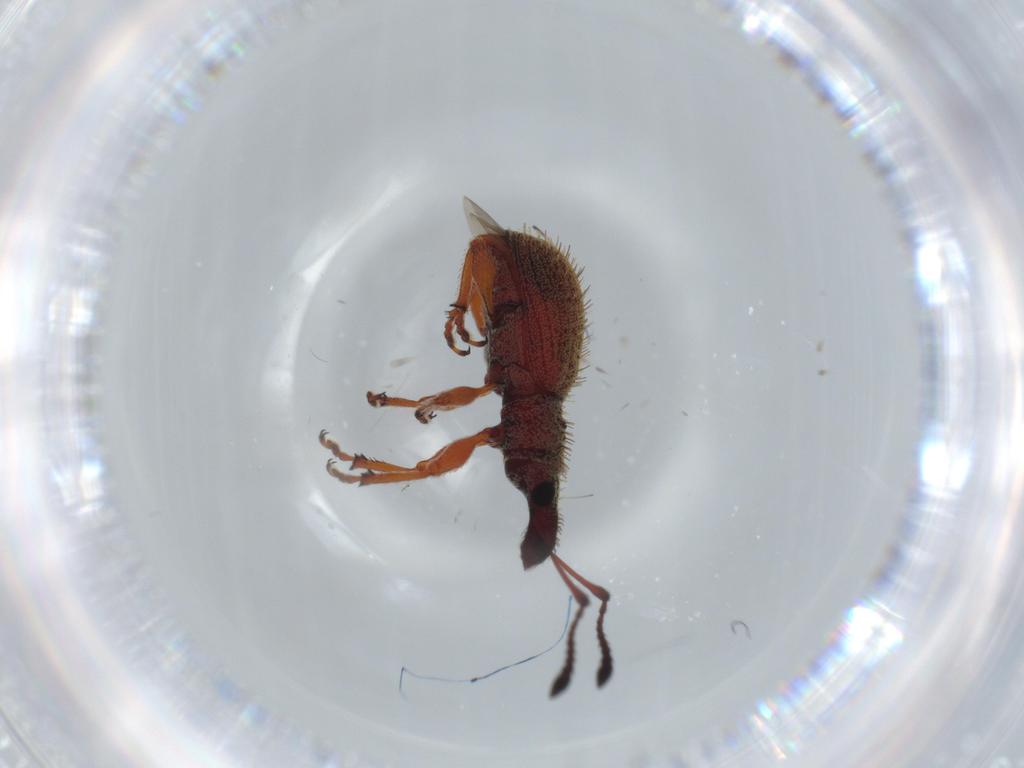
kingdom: Animalia
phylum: Arthropoda
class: Insecta
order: Coleoptera
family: Curculionidae
